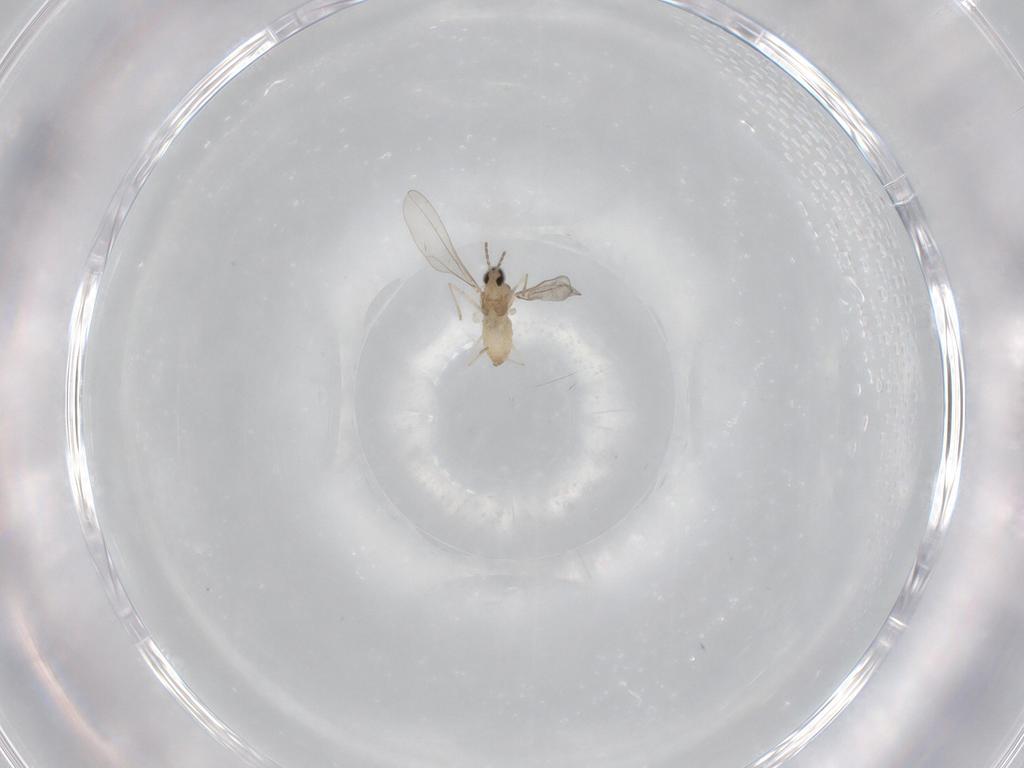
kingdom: Animalia
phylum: Arthropoda
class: Insecta
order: Diptera
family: Cecidomyiidae
